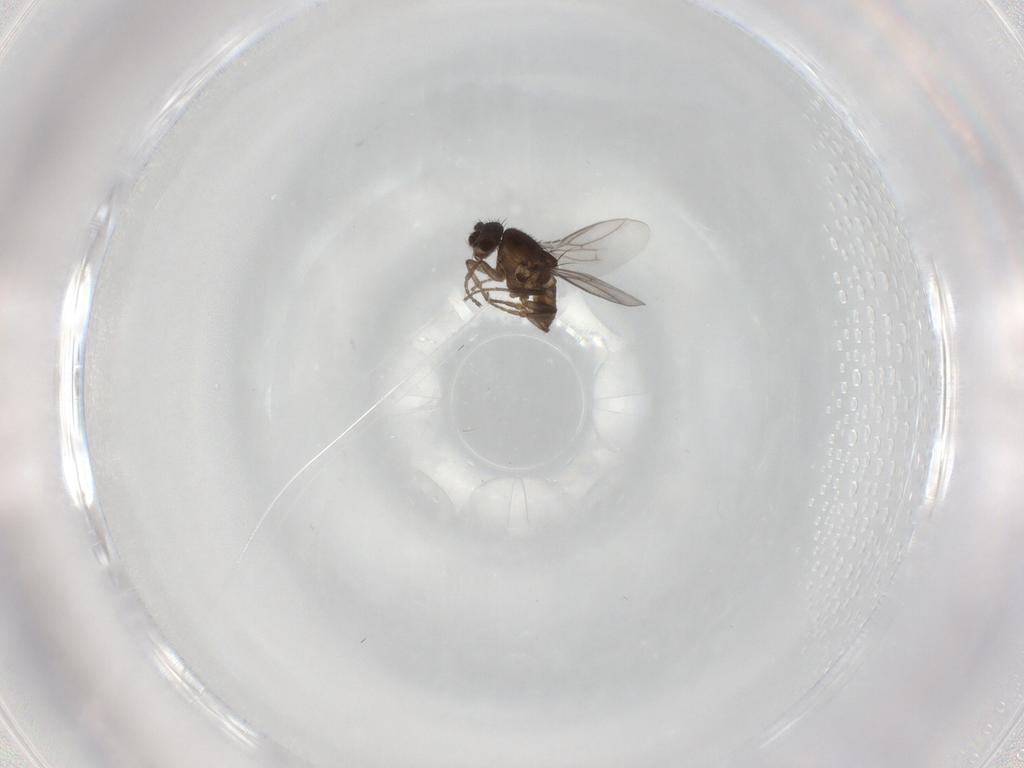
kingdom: Animalia
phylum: Arthropoda
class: Insecta
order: Diptera
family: Sphaeroceridae
